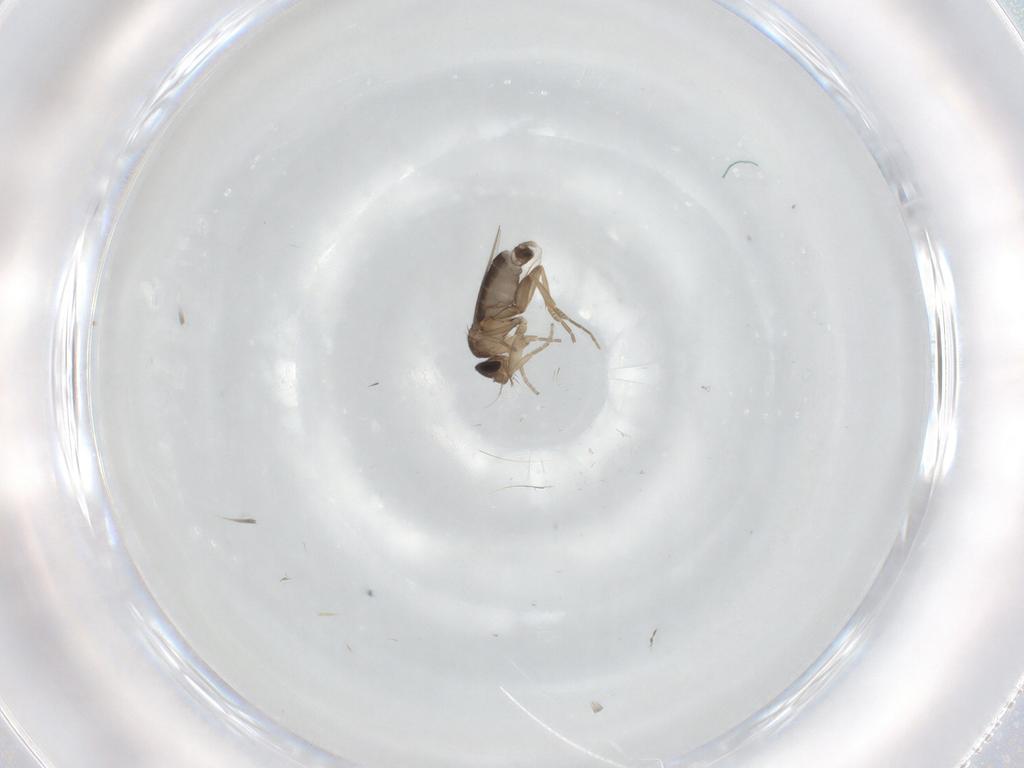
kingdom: Animalia
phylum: Arthropoda
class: Insecta
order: Diptera
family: Phoridae
